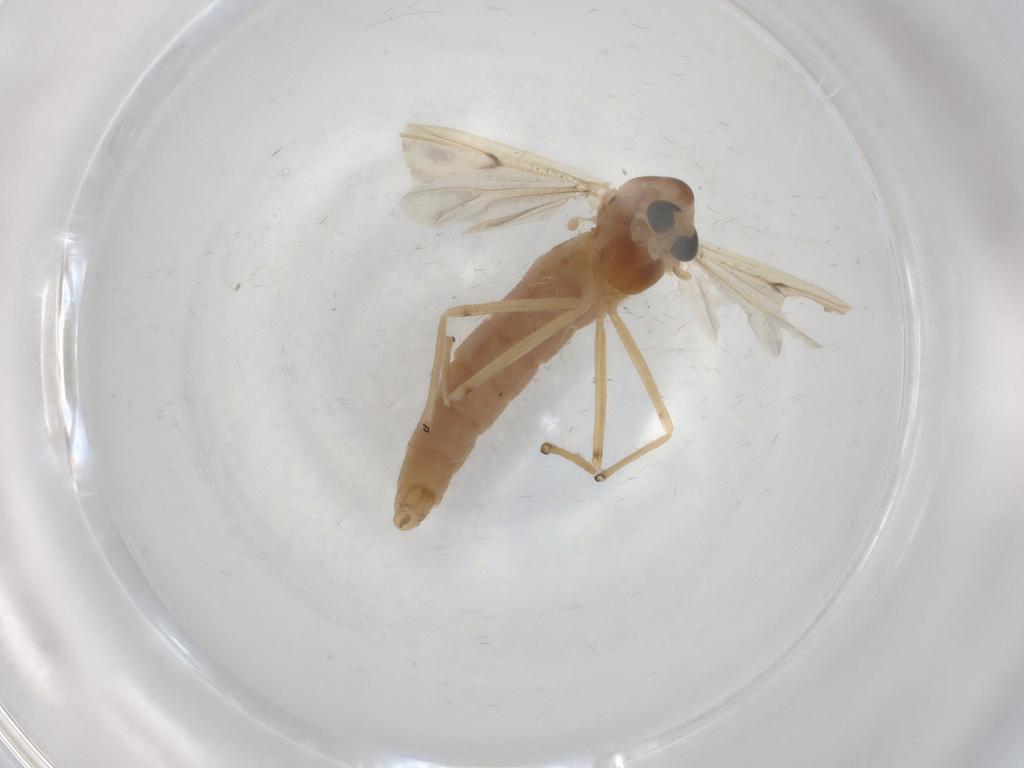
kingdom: Animalia
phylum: Arthropoda
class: Insecta
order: Diptera
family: Chironomidae
